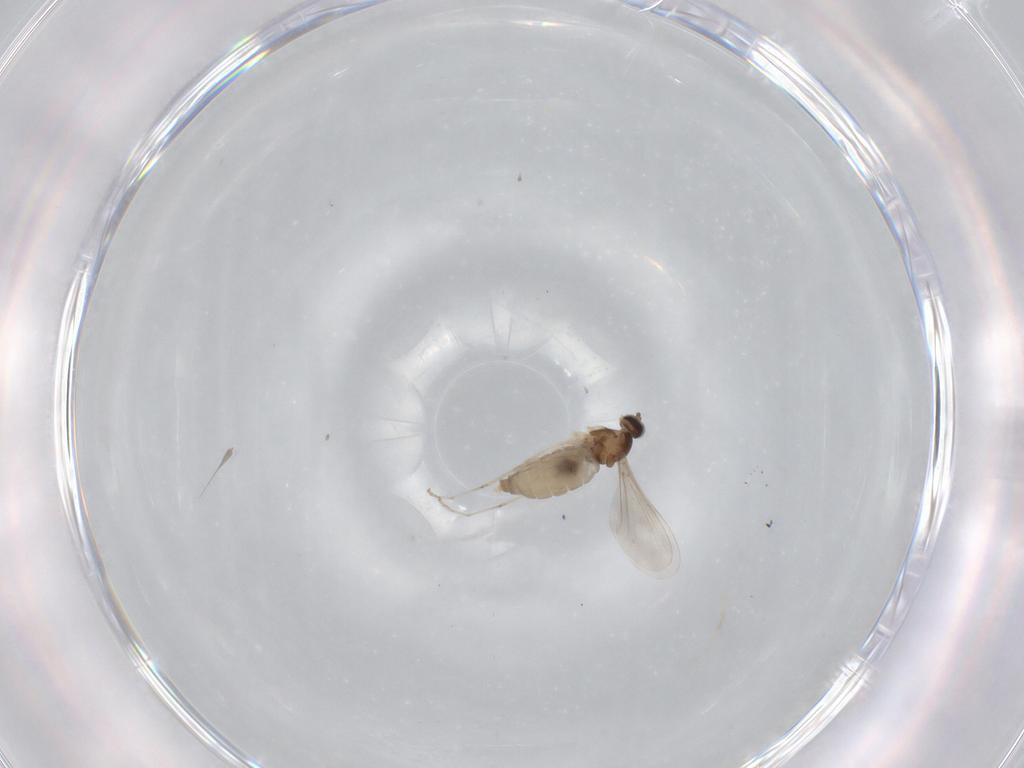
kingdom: Animalia
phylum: Arthropoda
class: Insecta
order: Diptera
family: Cecidomyiidae
